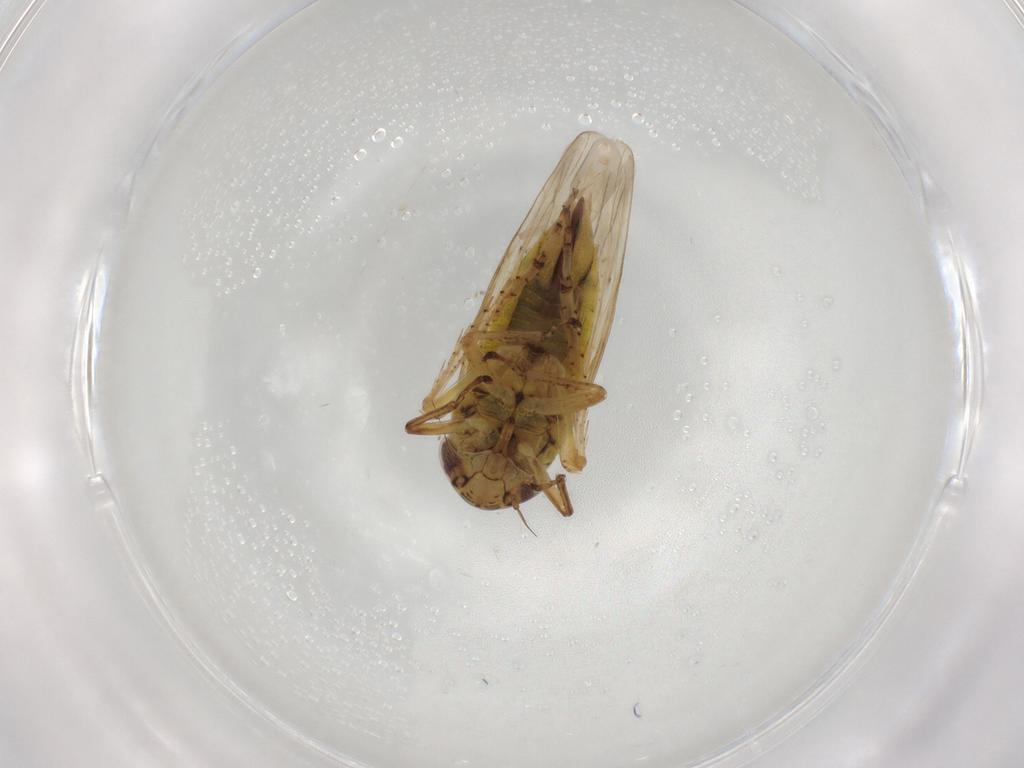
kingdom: Animalia
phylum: Arthropoda
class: Insecta
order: Hemiptera
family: Cicadellidae
